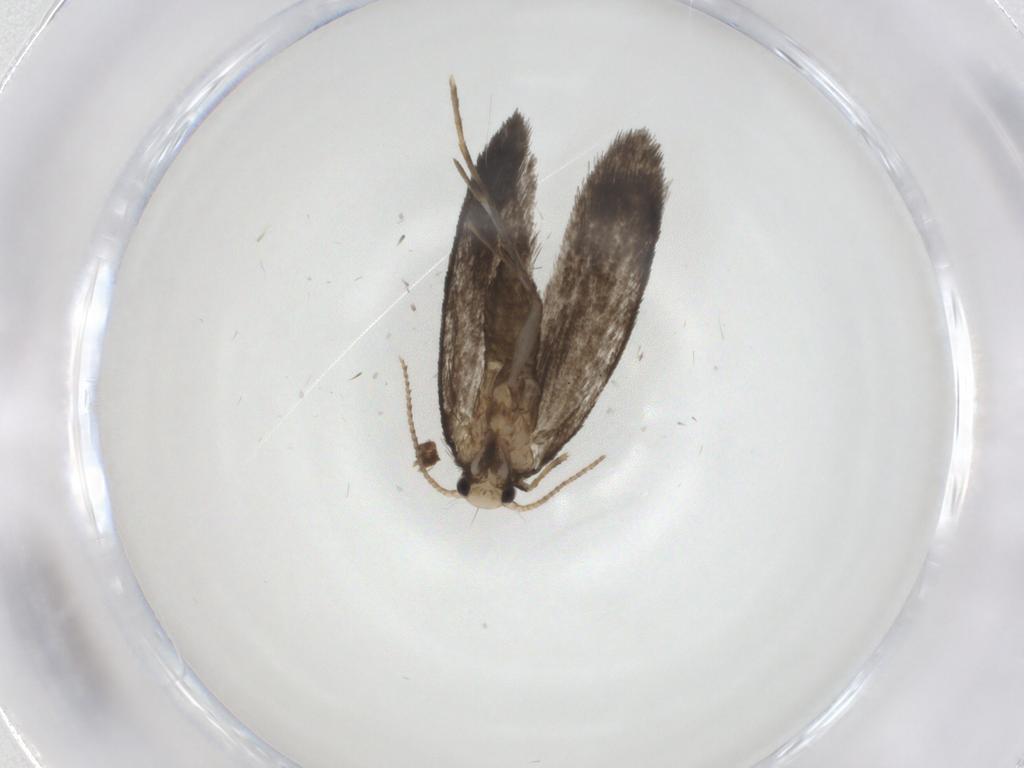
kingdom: Animalia
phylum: Arthropoda
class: Insecta
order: Lepidoptera
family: Psychidae
